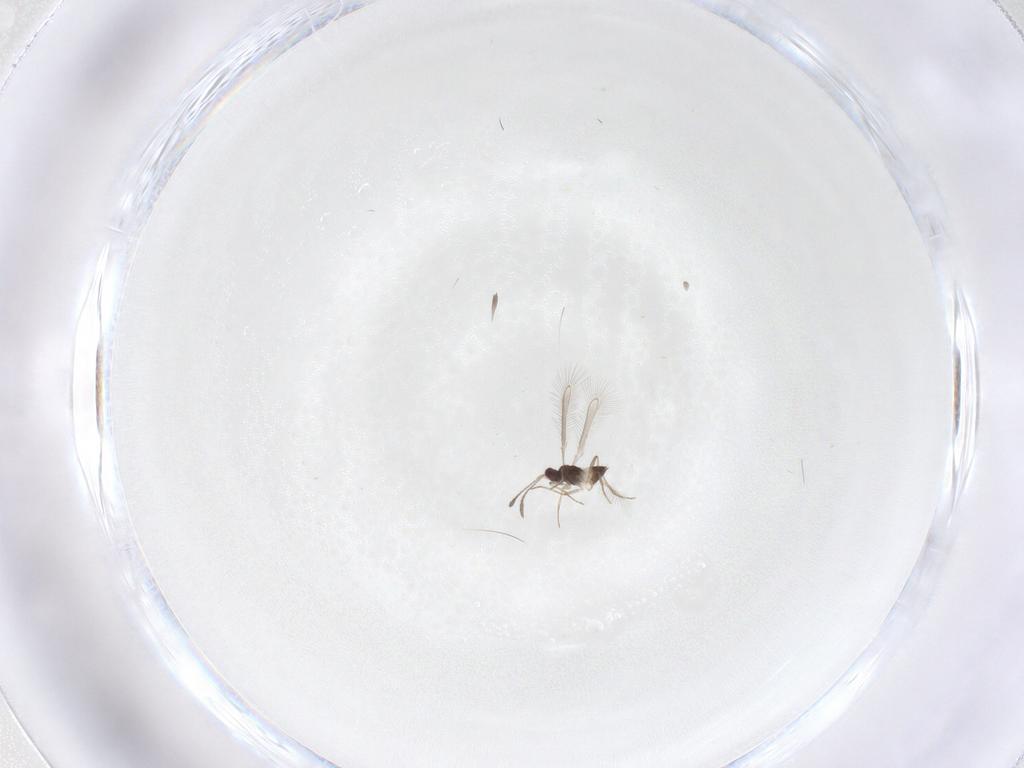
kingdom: Animalia
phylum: Arthropoda
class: Insecta
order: Hymenoptera
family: Mymaridae
